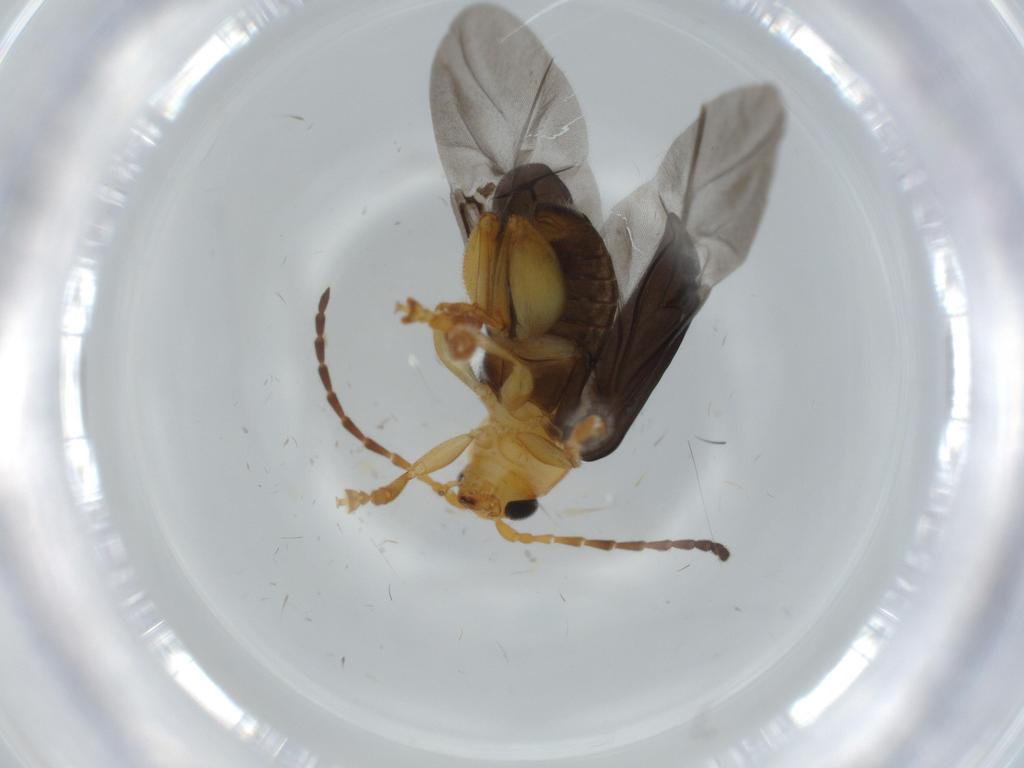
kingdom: Animalia
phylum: Arthropoda
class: Insecta
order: Coleoptera
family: Chrysomelidae
